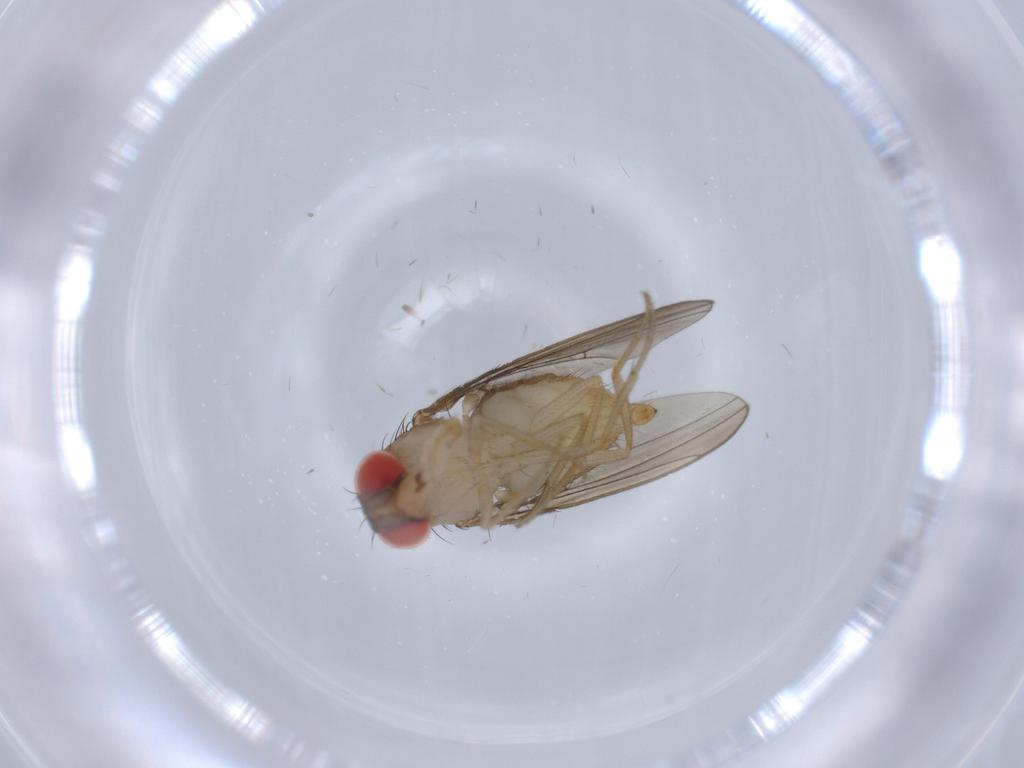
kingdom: Animalia
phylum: Arthropoda
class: Insecta
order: Diptera
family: Drosophilidae
